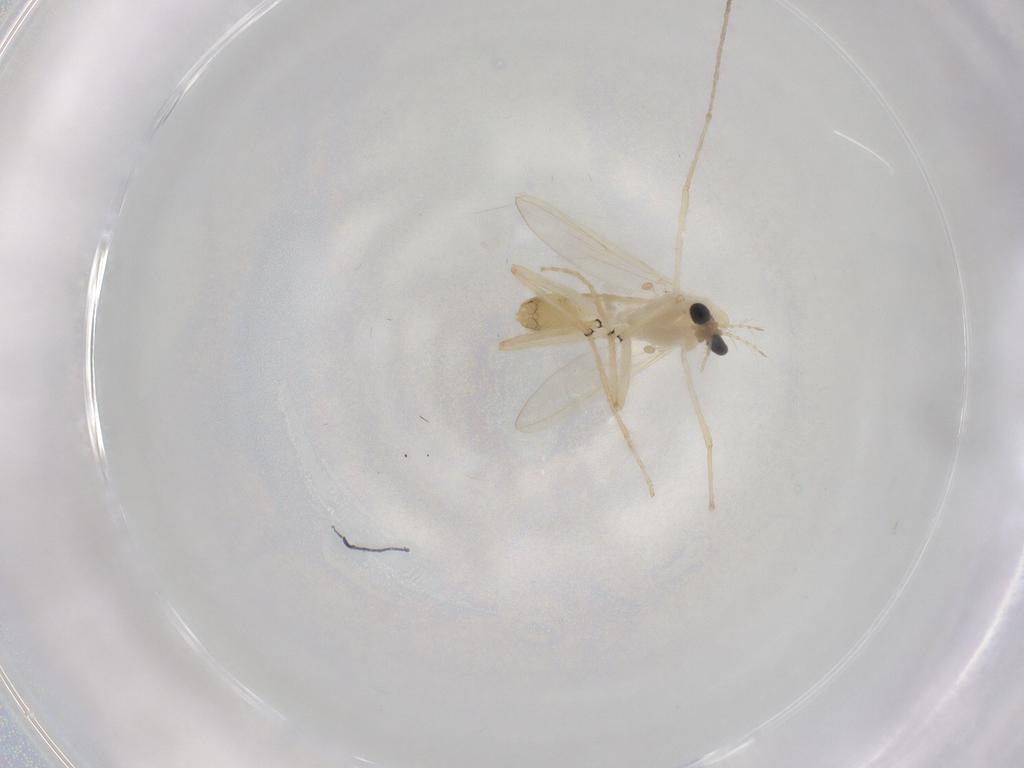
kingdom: Animalia
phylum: Arthropoda
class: Insecta
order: Diptera
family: Chironomidae
